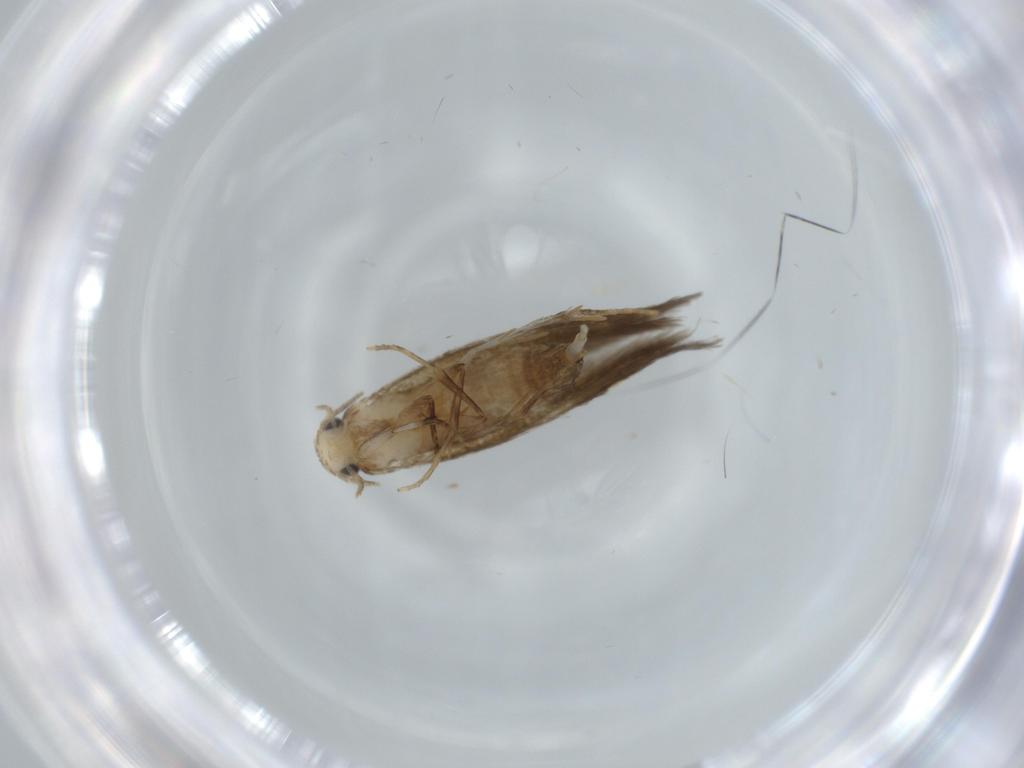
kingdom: Animalia
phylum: Arthropoda
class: Insecta
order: Lepidoptera
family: Tineidae
